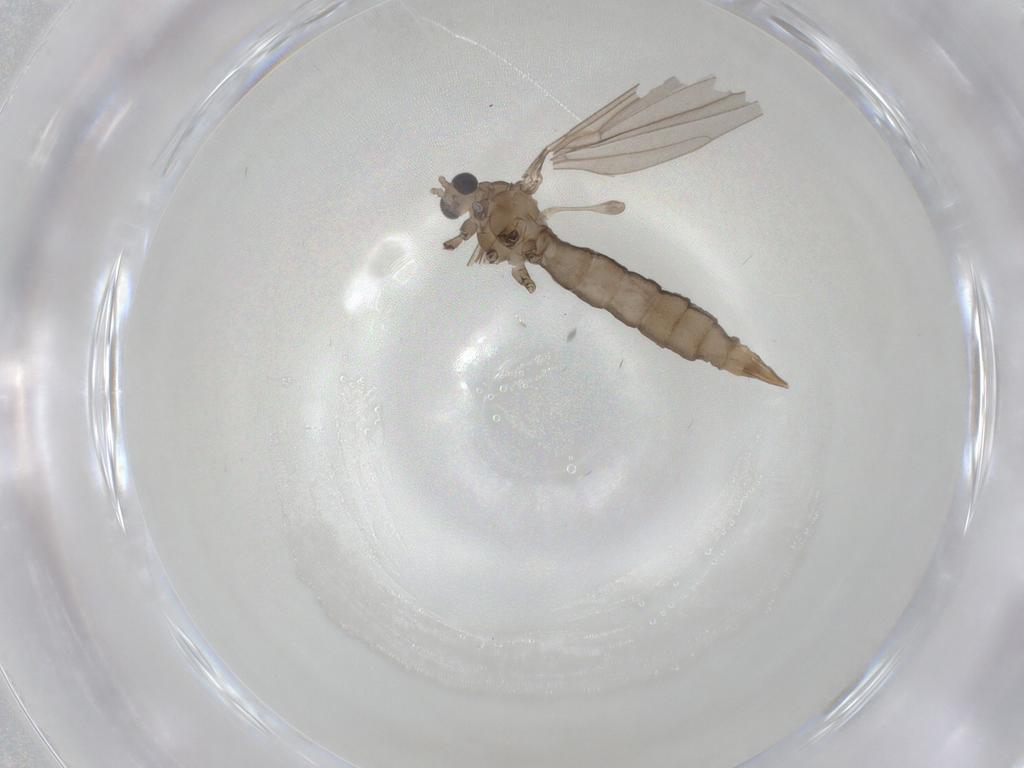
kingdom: Animalia
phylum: Arthropoda
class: Insecta
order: Diptera
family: Limoniidae
